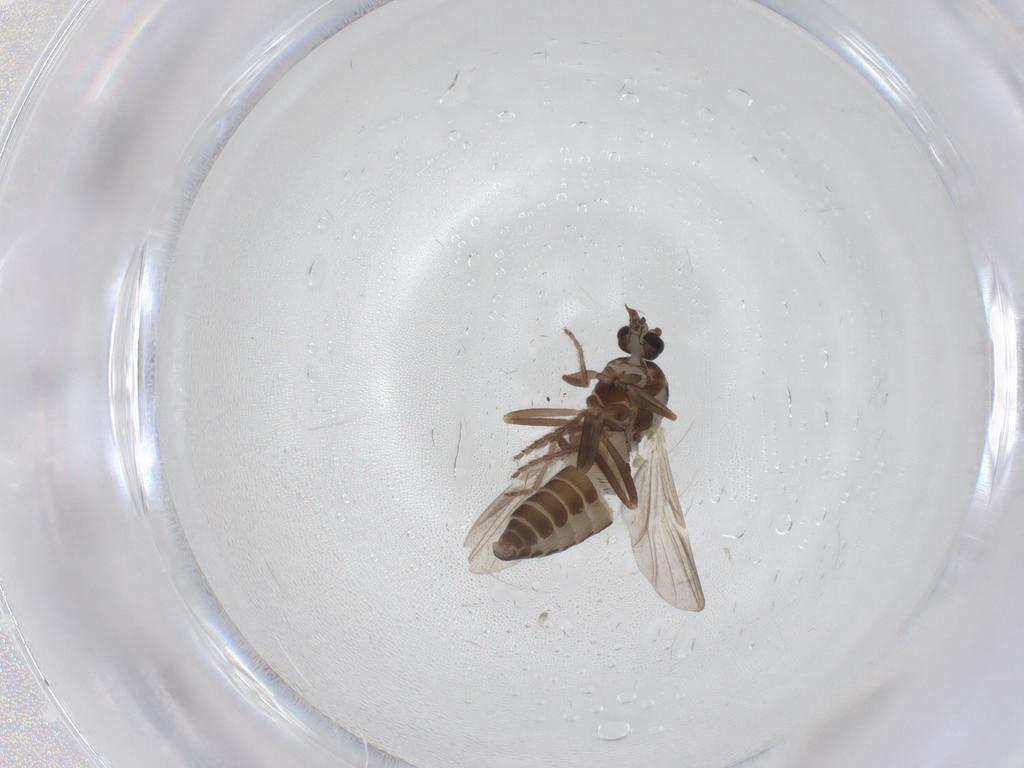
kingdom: Animalia
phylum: Arthropoda
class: Insecta
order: Diptera
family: Ceratopogonidae
